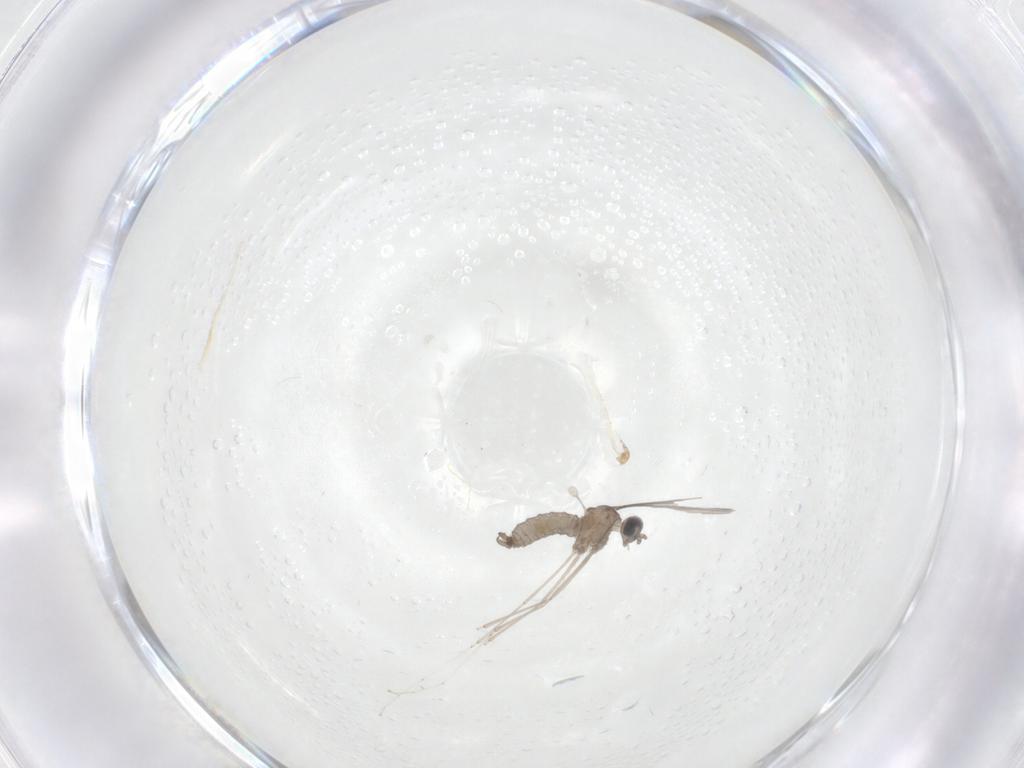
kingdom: Animalia
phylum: Arthropoda
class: Insecta
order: Diptera
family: Cecidomyiidae
